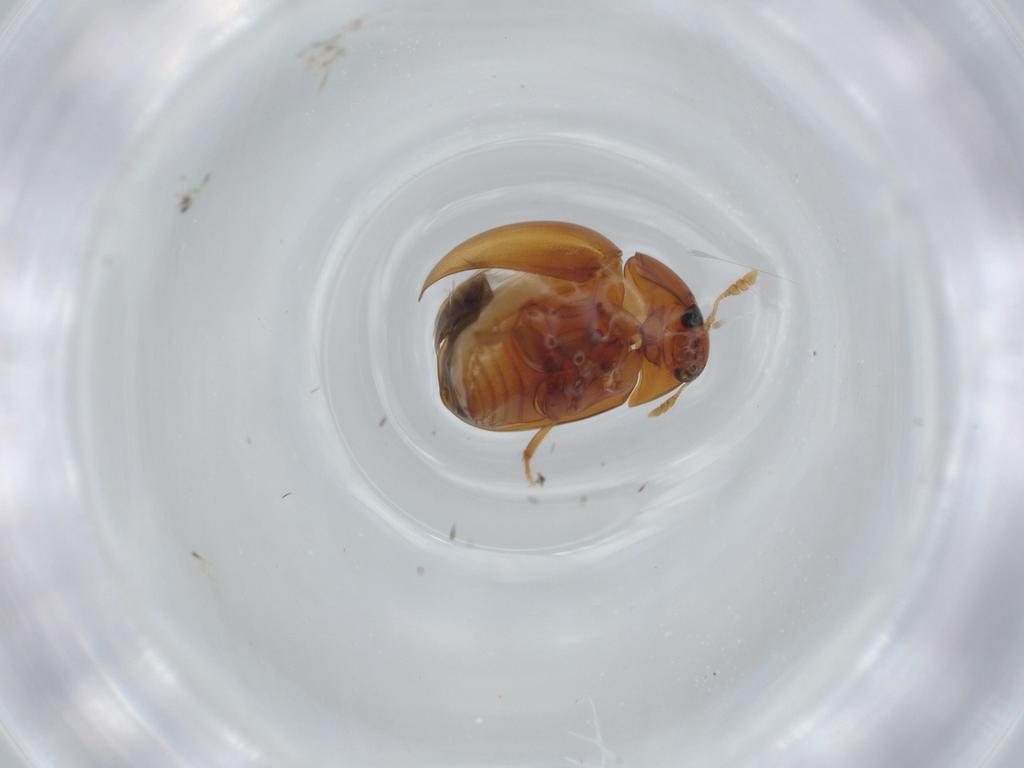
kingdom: Animalia
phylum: Arthropoda
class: Insecta
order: Coleoptera
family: Phalacridae
